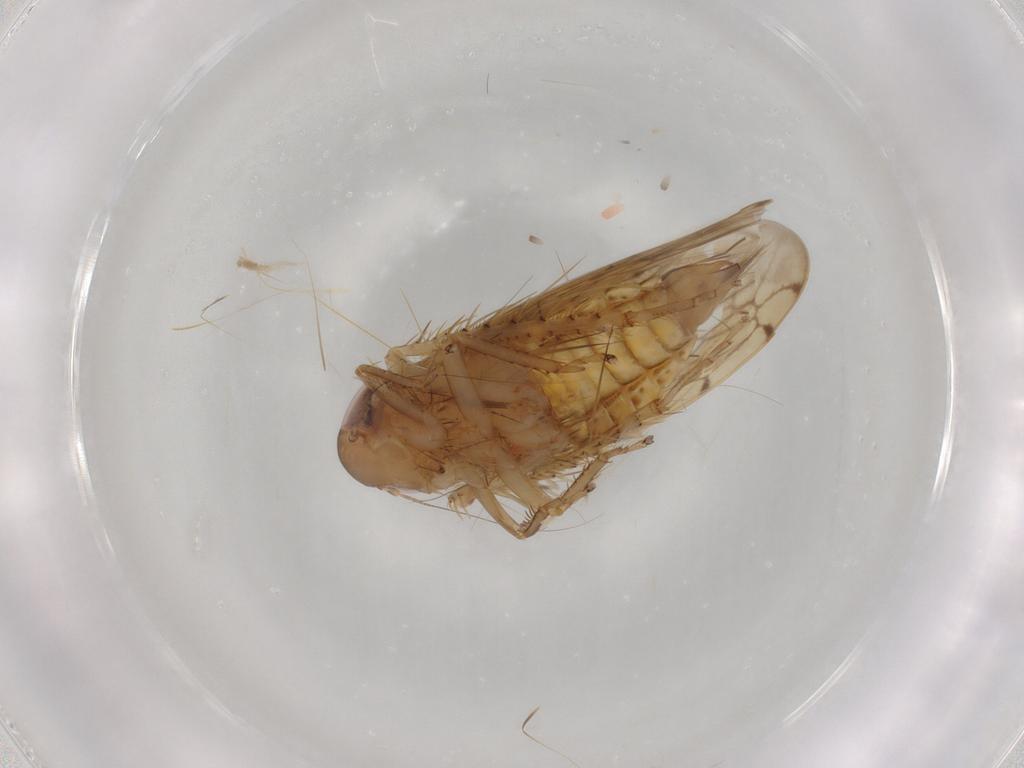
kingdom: Animalia
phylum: Arthropoda
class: Insecta
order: Hemiptera
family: Cicadellidae
